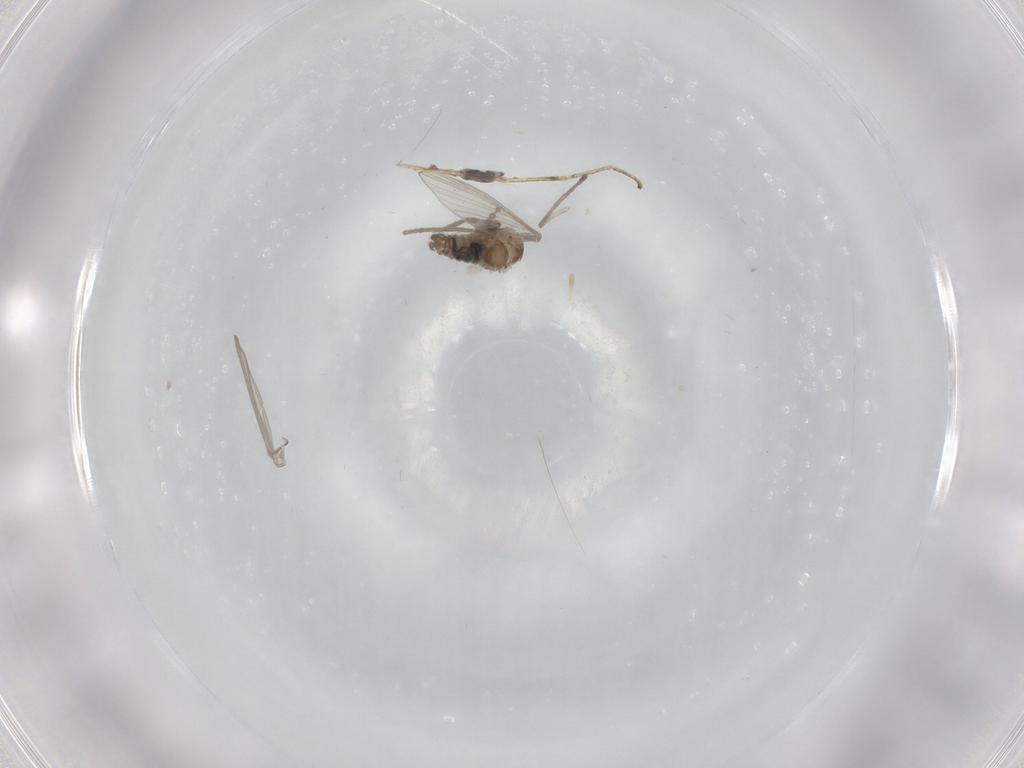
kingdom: Animalia
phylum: Arthropoda
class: Insecta
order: Diptera
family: Psychodidae
